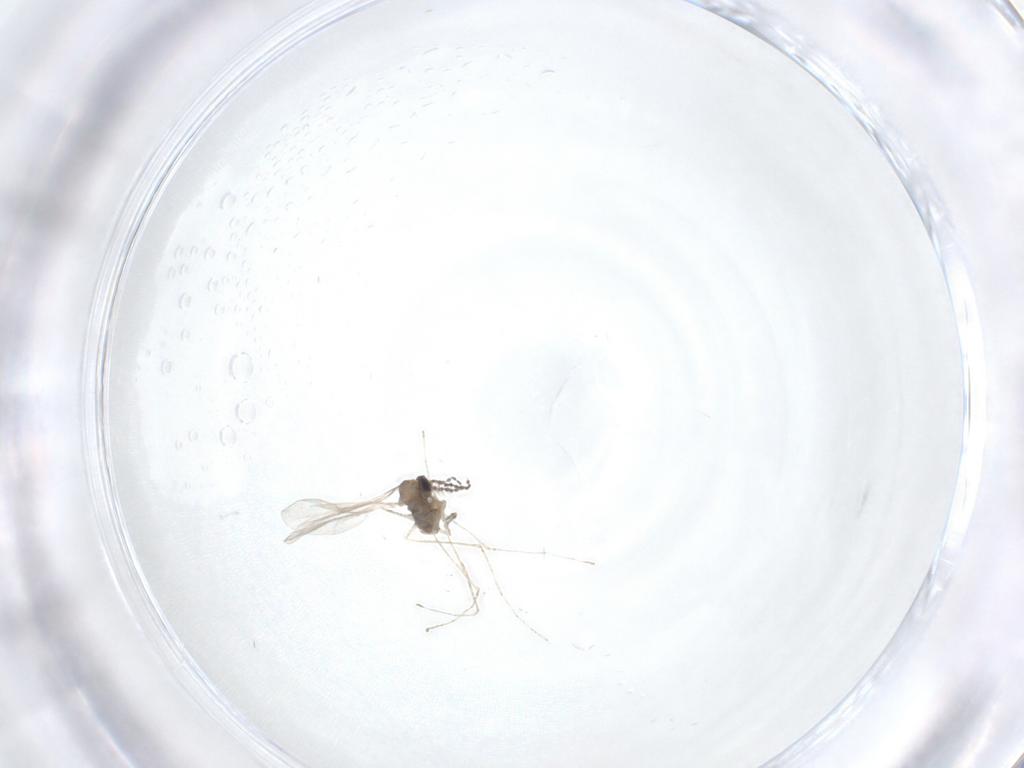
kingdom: Animalia
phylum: Arthropoda
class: Insecta
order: Diptera
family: Cecidomyiidae
